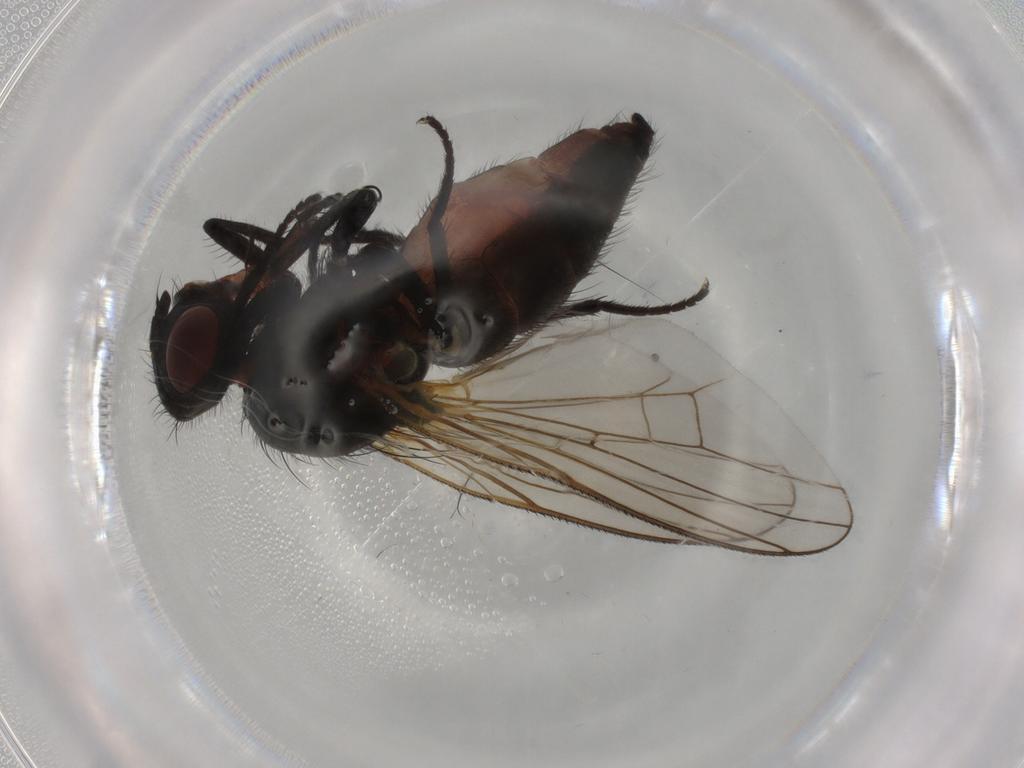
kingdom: Animalia
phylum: Arthropoda
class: Insecta
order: Diptera
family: Anthomyiidae
